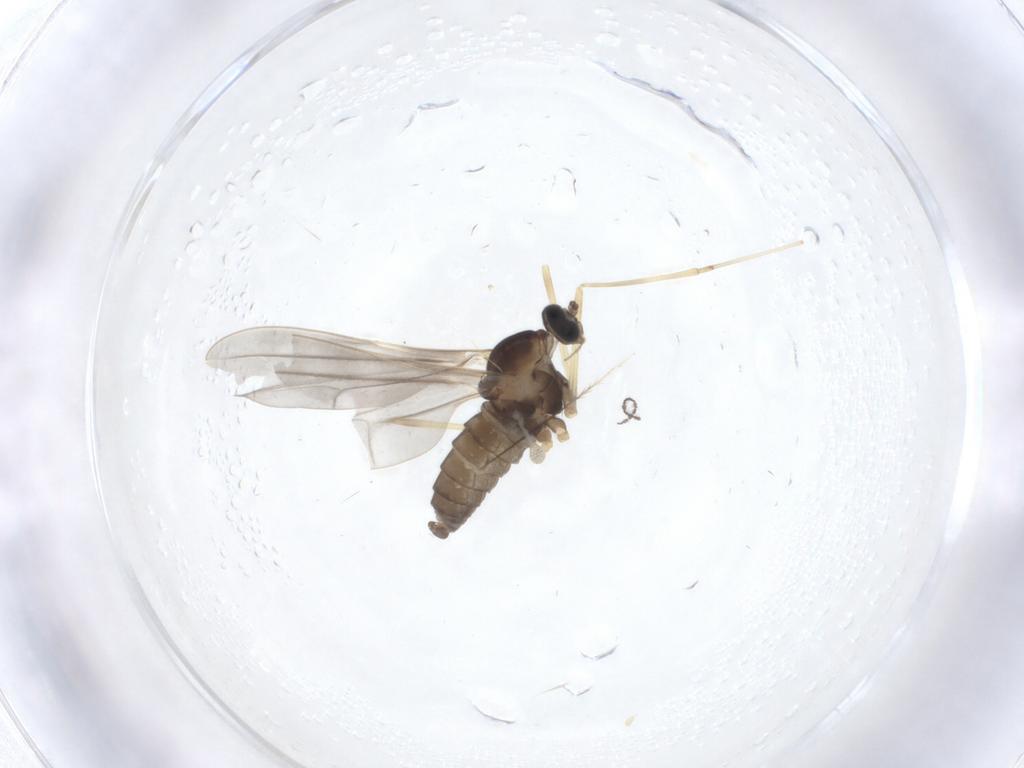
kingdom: Animalia
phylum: Arthropoda
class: Insecta
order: Diptera
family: Cecidomyiidae
